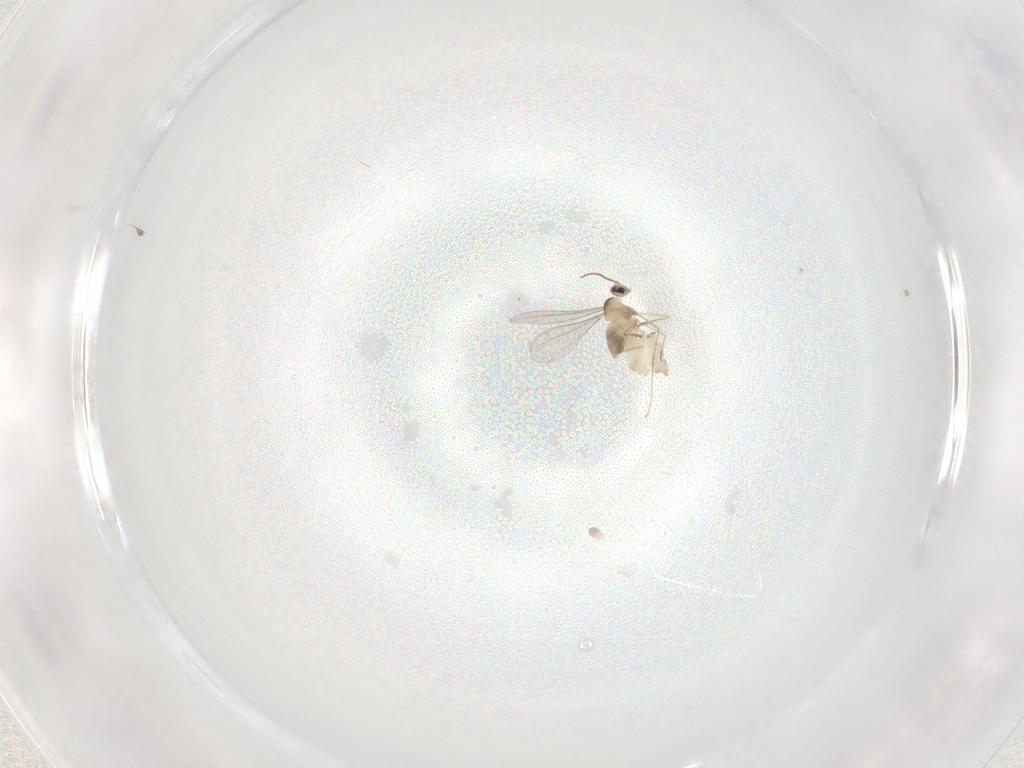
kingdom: Animalia
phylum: Arthropoda
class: Insecta
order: Diptera
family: Cecidomyiidae
